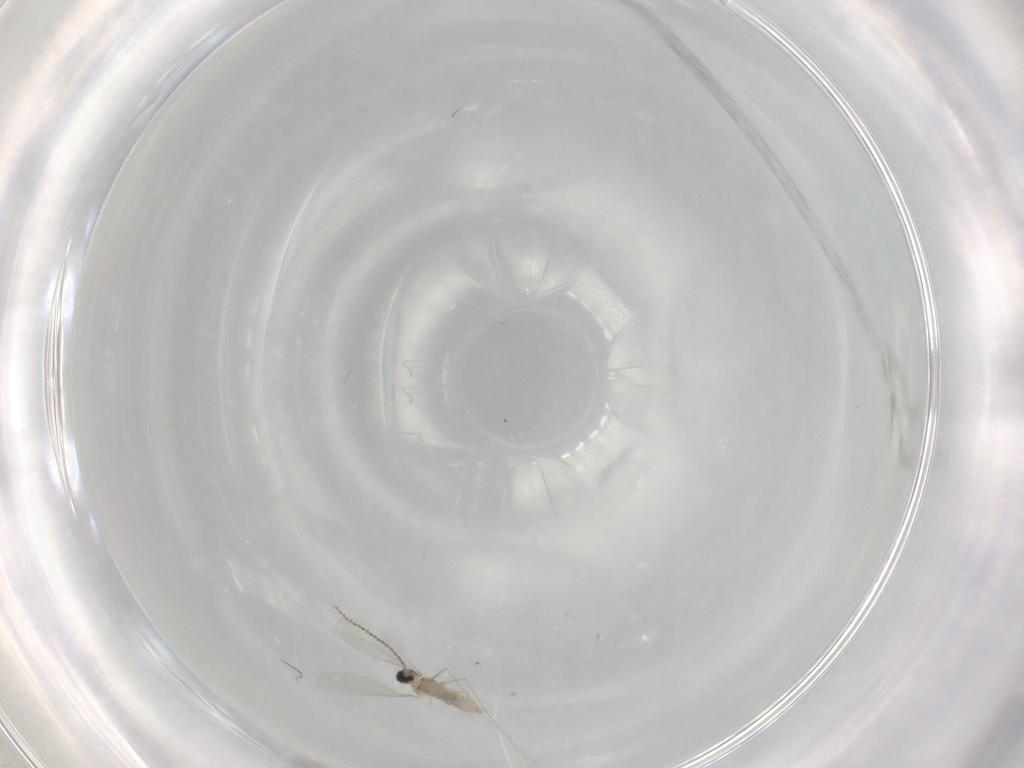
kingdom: Animalia
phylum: Arthropoda
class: Insecta
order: Diptera
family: Cecidomyiidae
